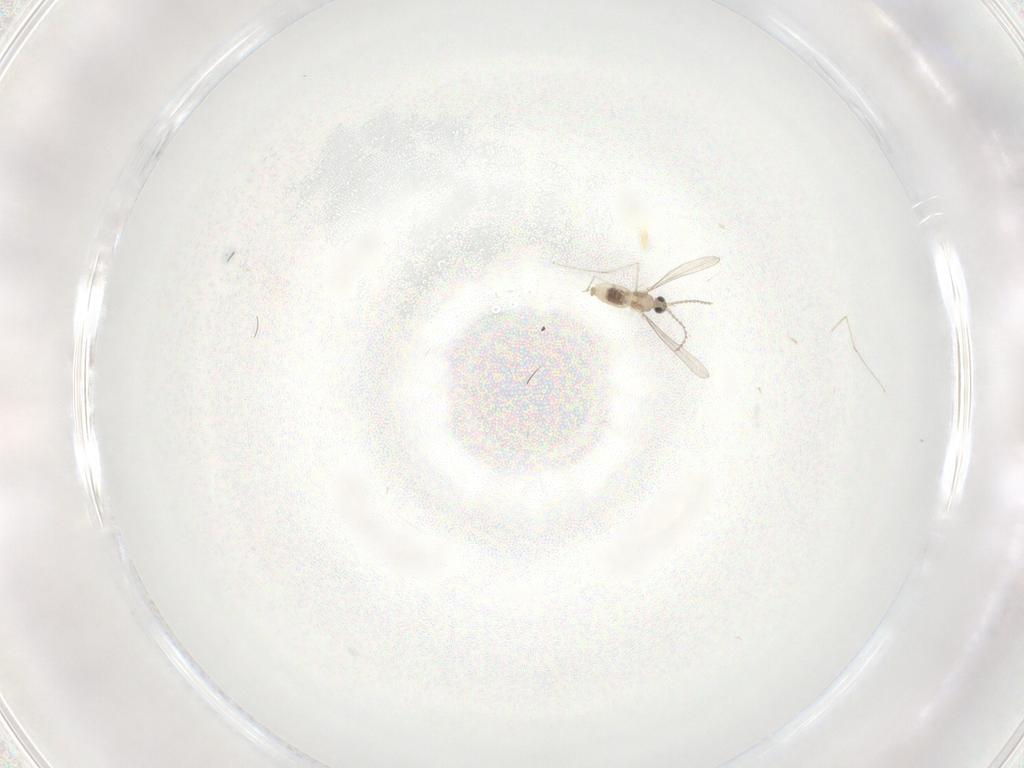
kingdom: Animalia
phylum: Arthropoda
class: Insecta
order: Diptera
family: Cecidomyiidae
